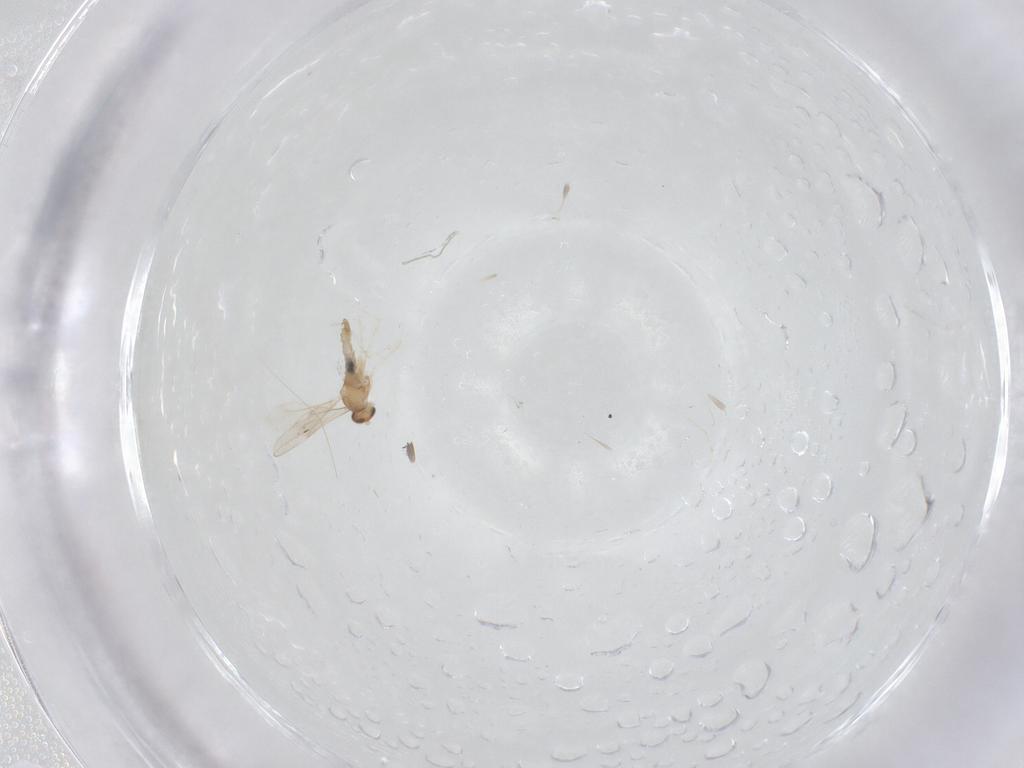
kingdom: Animalia
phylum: Arthropoda
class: Insecta
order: Diptera
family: Cecidomyiidae
